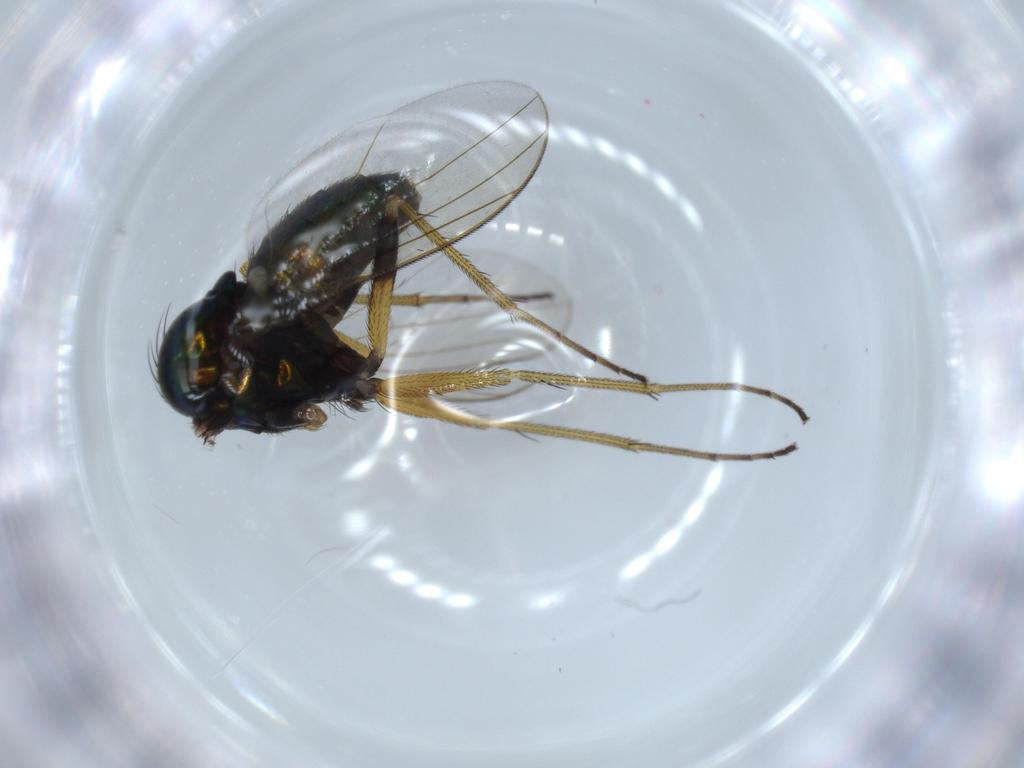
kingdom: Animalia
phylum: Arthropoda
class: Insecta
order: Diptera
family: Dolichopodidae
